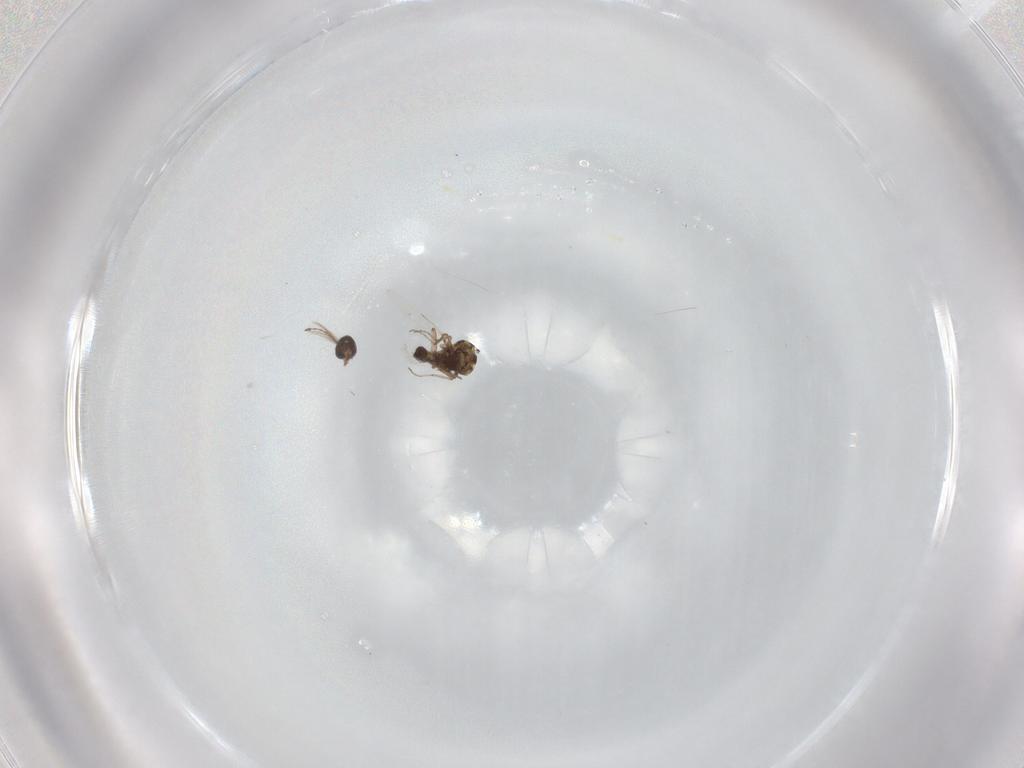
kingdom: Animalia
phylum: Arthropoda
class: Insecta
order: Diptera
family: Ceratopogonidae
